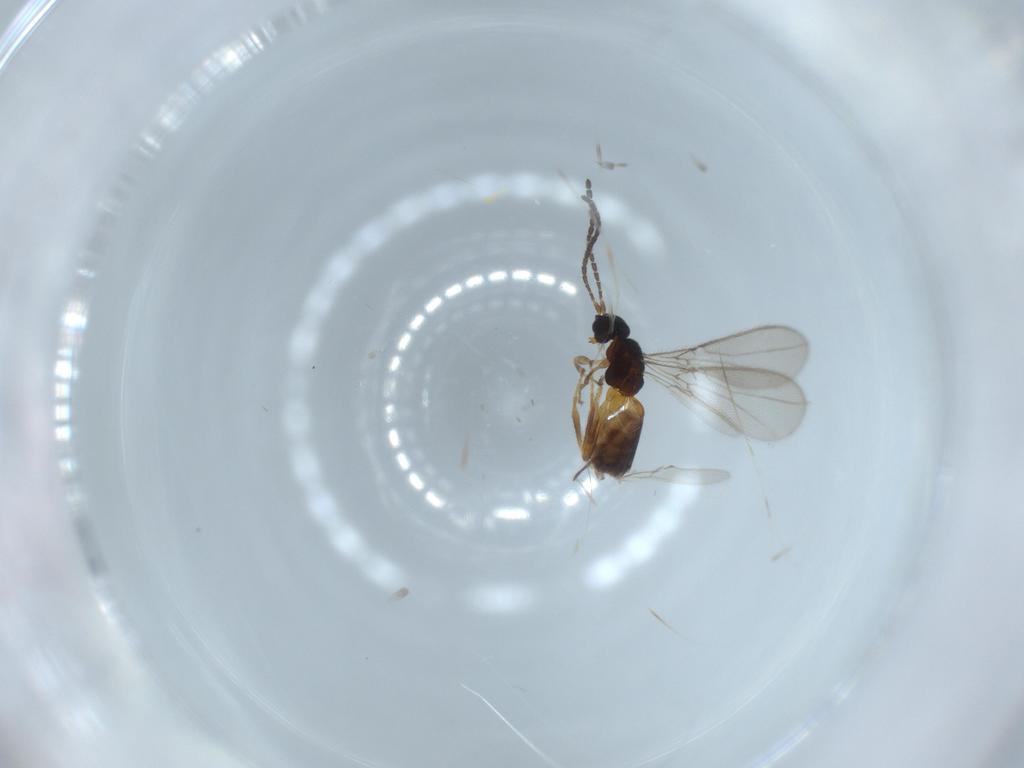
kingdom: Animalia
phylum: Arthropoda
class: Insecta
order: Hymenoptera
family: Braconidae
